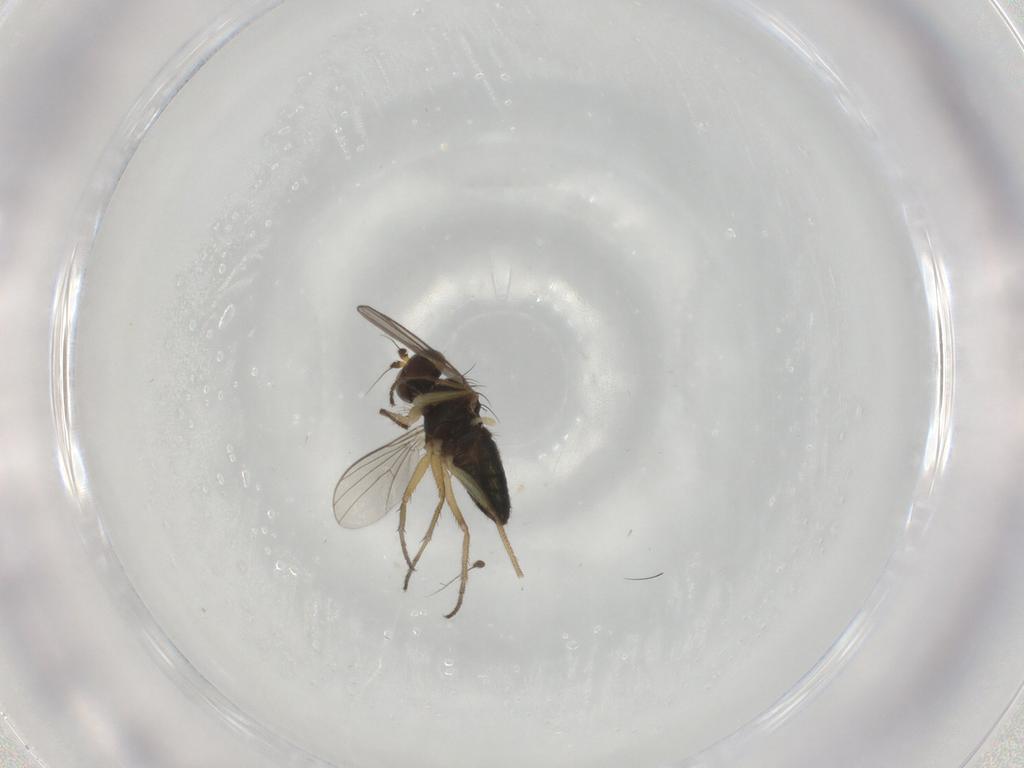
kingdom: Animalia
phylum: Arthropoda
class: Insecta
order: Diptera
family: Dolichopodidae
